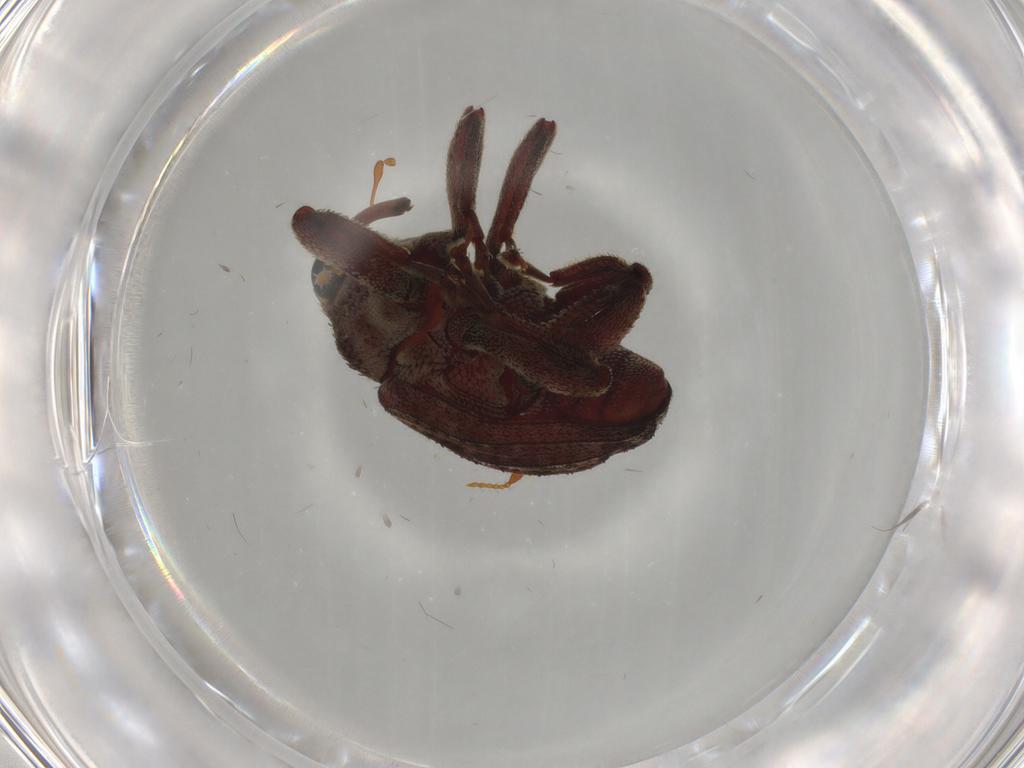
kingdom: Animalia
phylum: Arthropoda
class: Insecta
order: Coleoptera
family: Curculionidae
